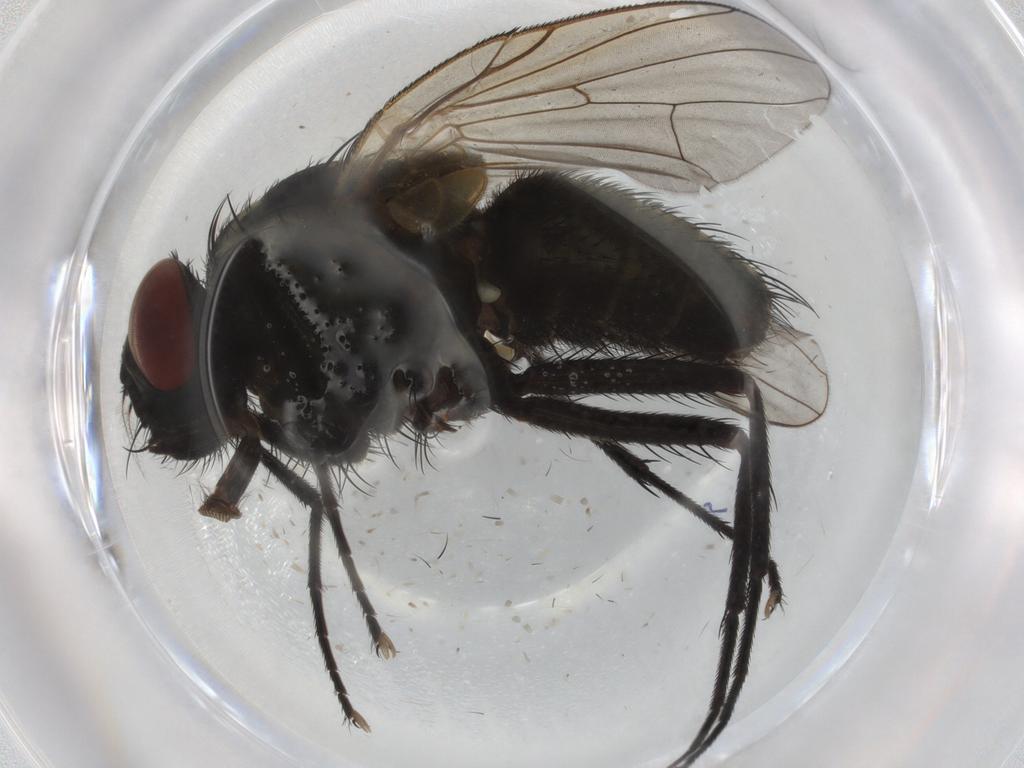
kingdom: Animalia
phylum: Arthropoda
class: Insecta
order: Diptera
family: Muscidae
